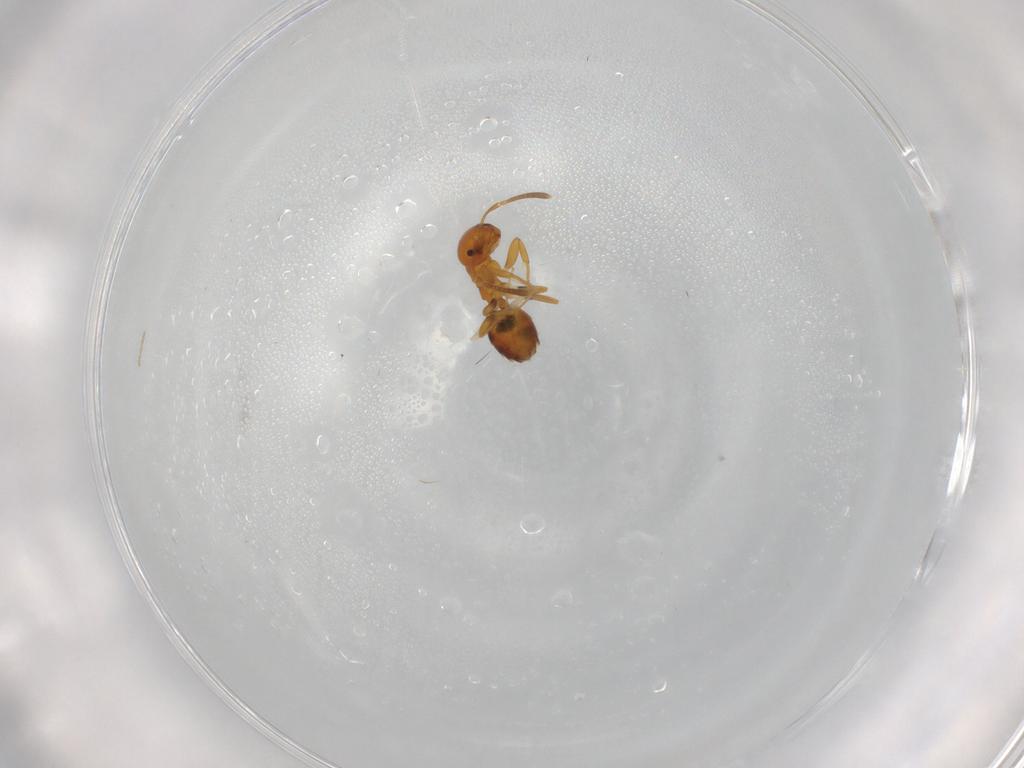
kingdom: Animalia
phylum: Arthropoda
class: Insecta
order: Hymenoptera
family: Formicidae
